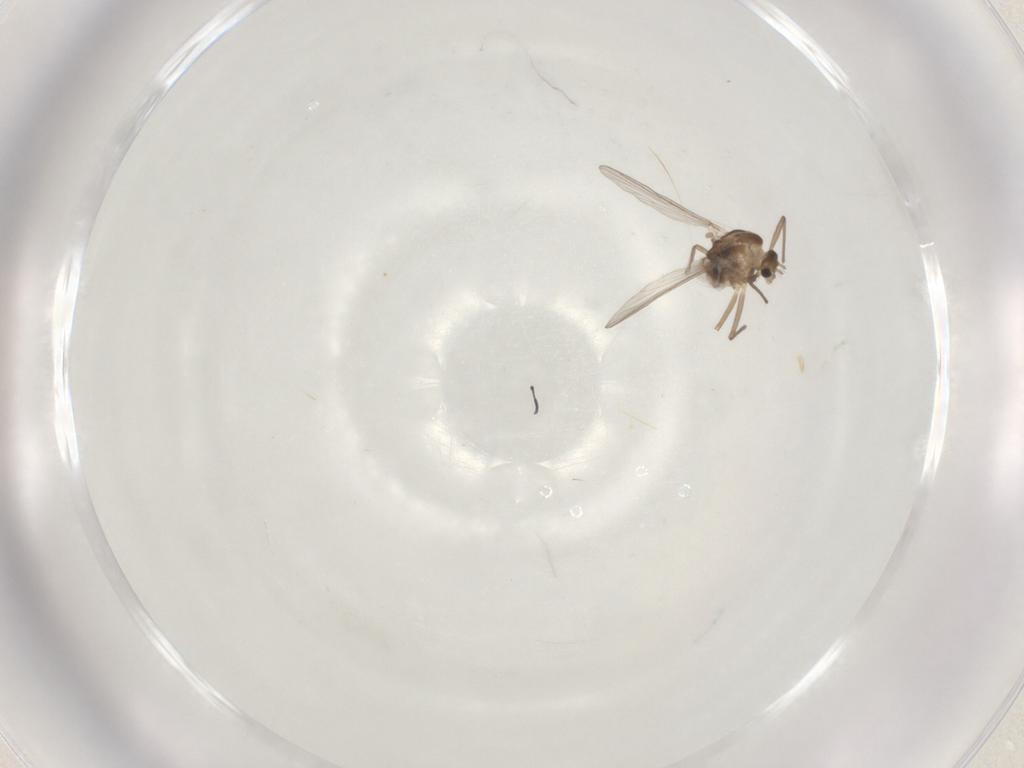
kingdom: Animalia
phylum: Arthropoda
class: Insecta
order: Diptera
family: Chironomidae
